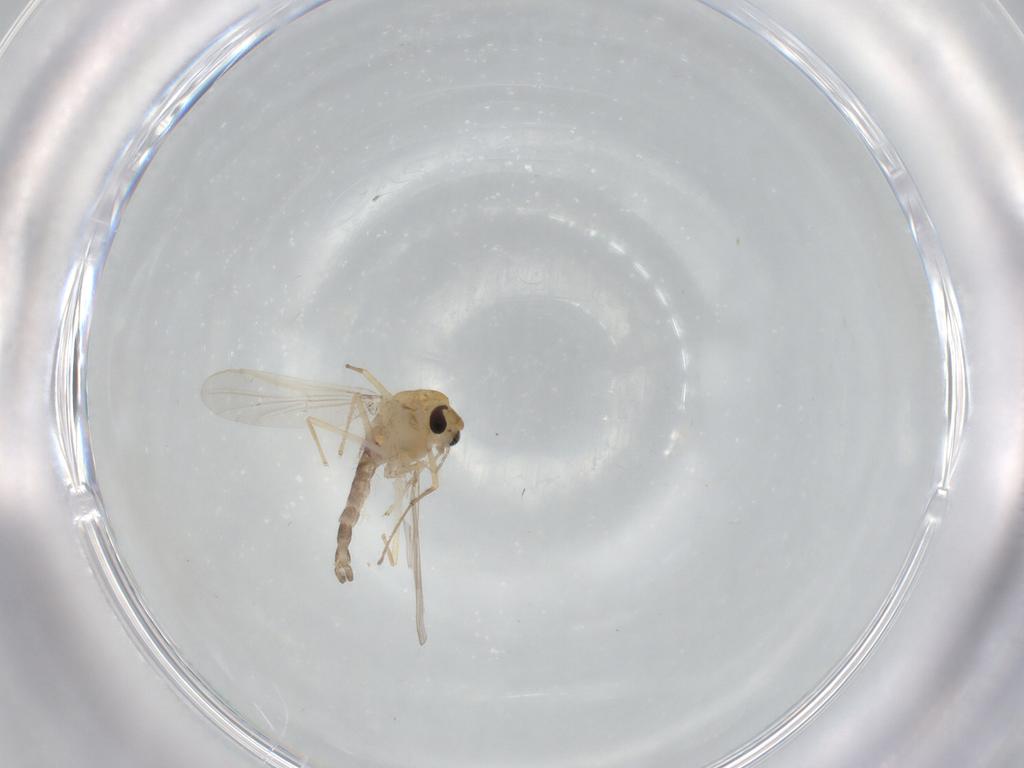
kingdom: Animalia
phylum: Arthropoda
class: Insecta
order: Diptera
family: Chironomidae
